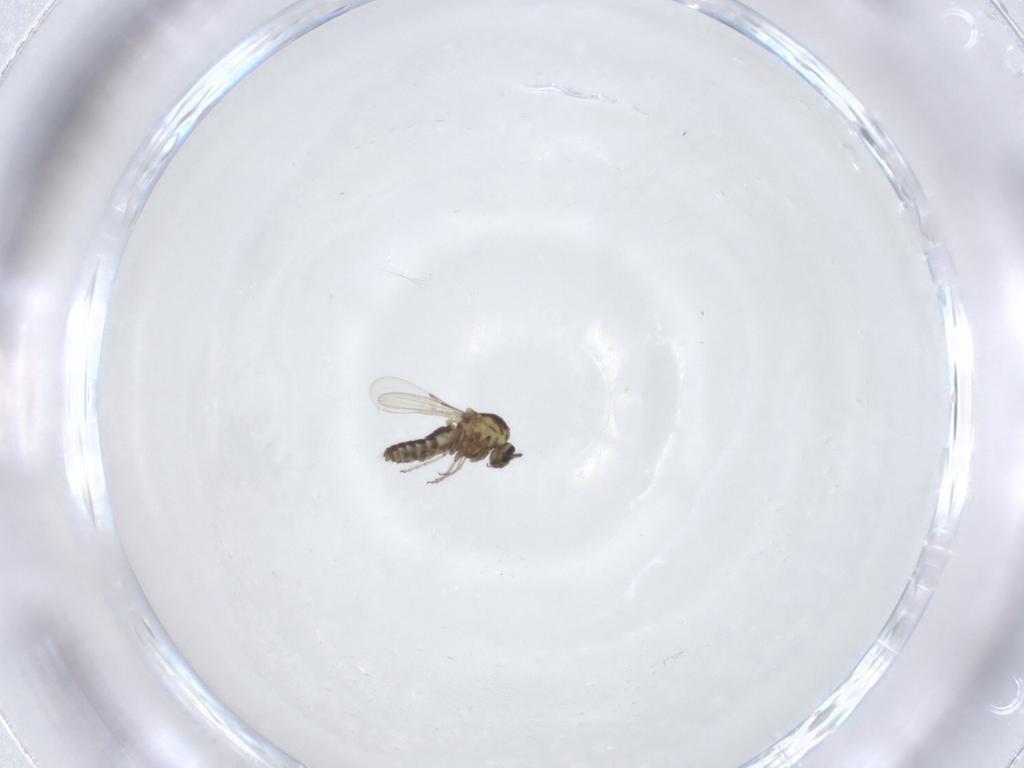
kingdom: Animalia
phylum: Arthropoda
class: Insecta
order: Diptera
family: Ceratopogonidae
